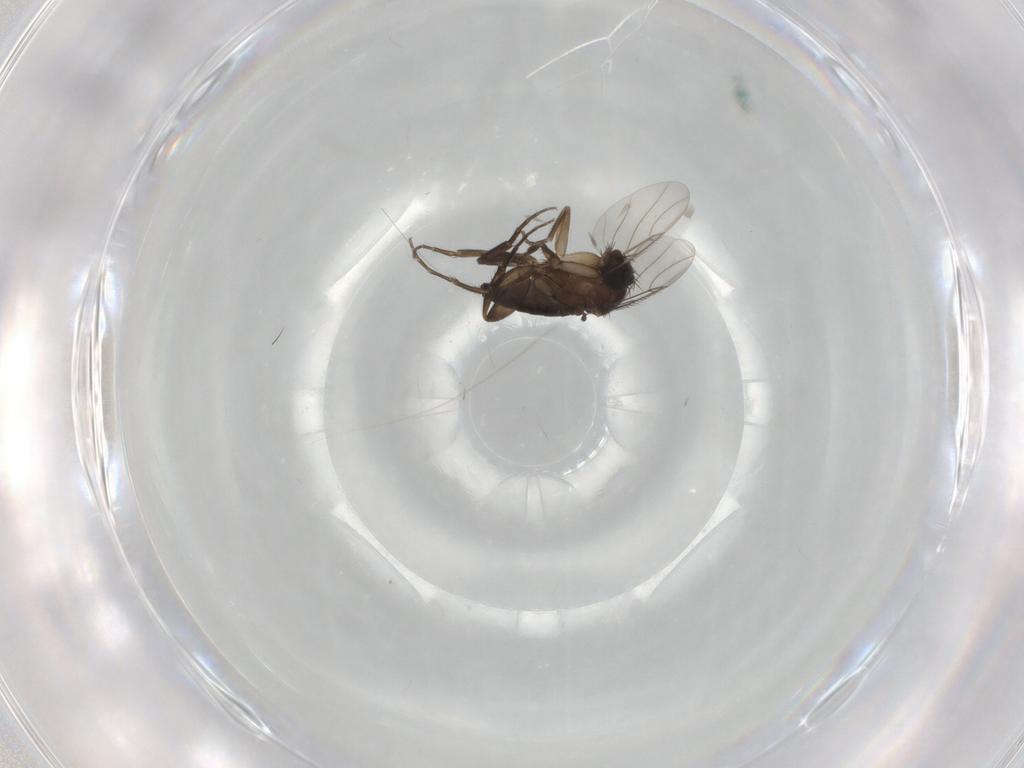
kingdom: Animalia
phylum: Arthropoda
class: Insecta
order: Diptera
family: Phoridae
